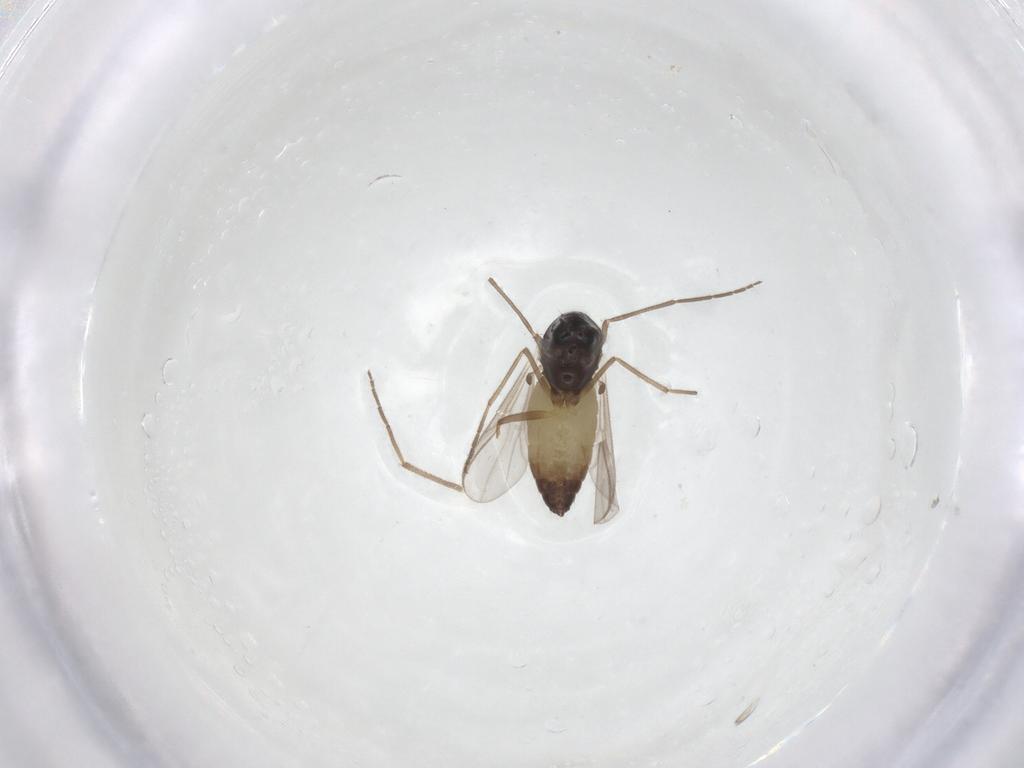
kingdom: Animalia
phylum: Arthropoda
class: Insecta
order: Diptera
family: Chironomidae
